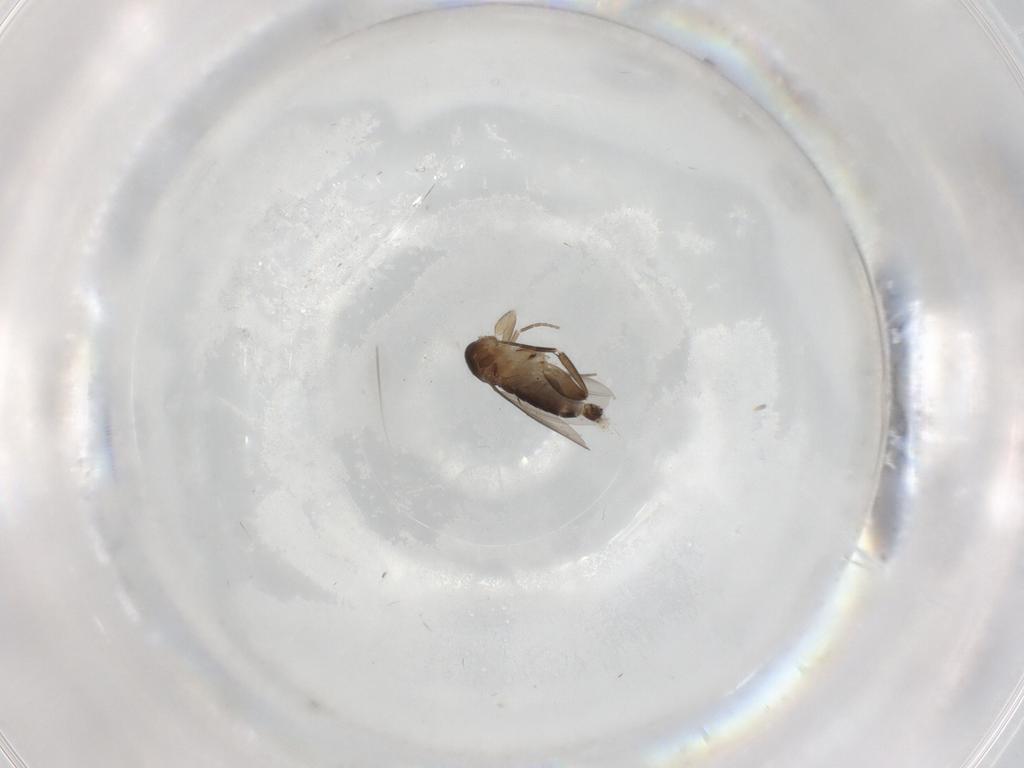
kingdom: Animalia
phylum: Arthropoda
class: Insecta
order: Diptera
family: Phoridae
